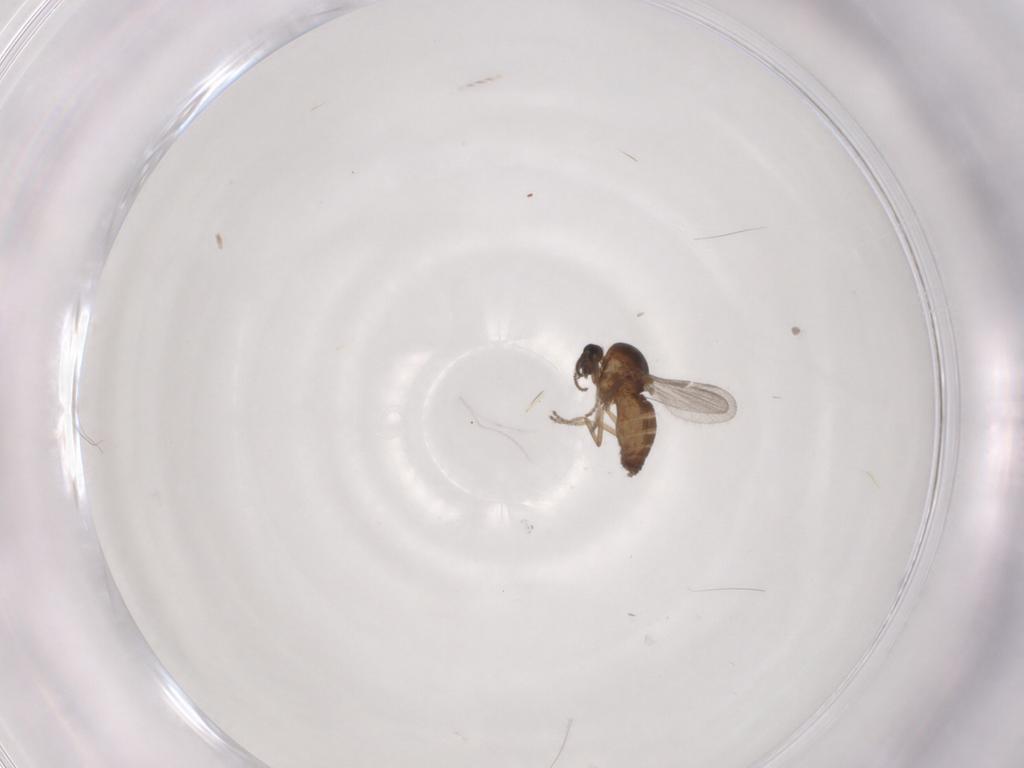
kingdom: Animalia
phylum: Arthropoda
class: Insecta
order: Diptera
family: Ceratopogonidae
